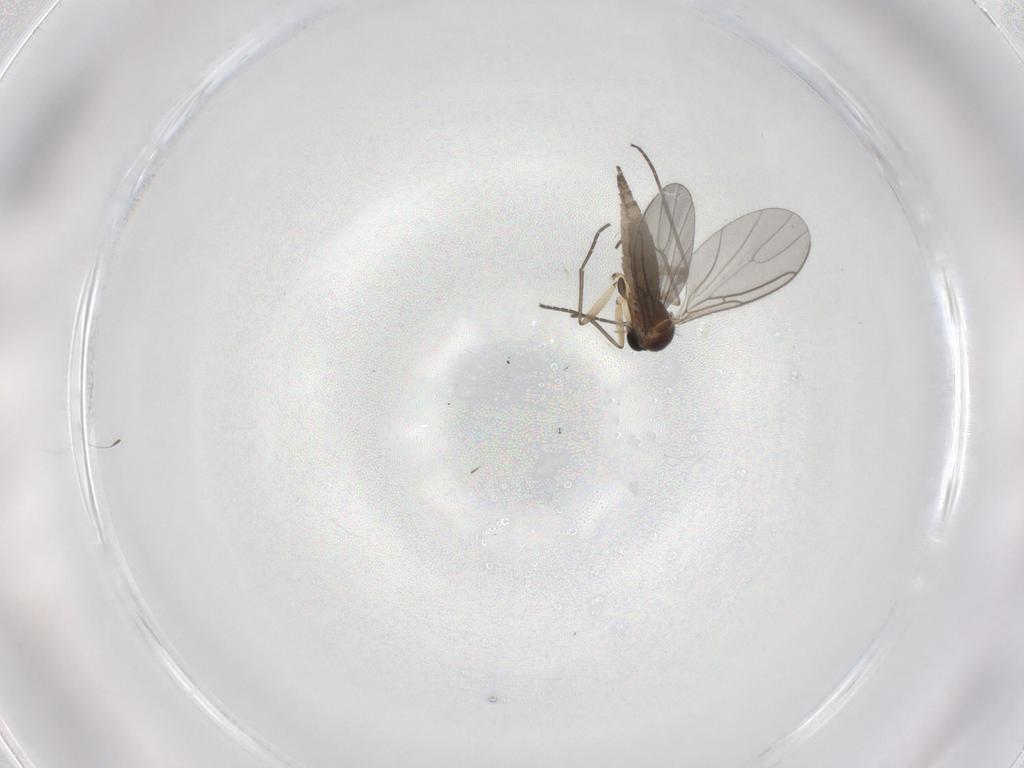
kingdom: Animalia
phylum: Arthropoda
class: Insecta
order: Diptera
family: Sciaridae
